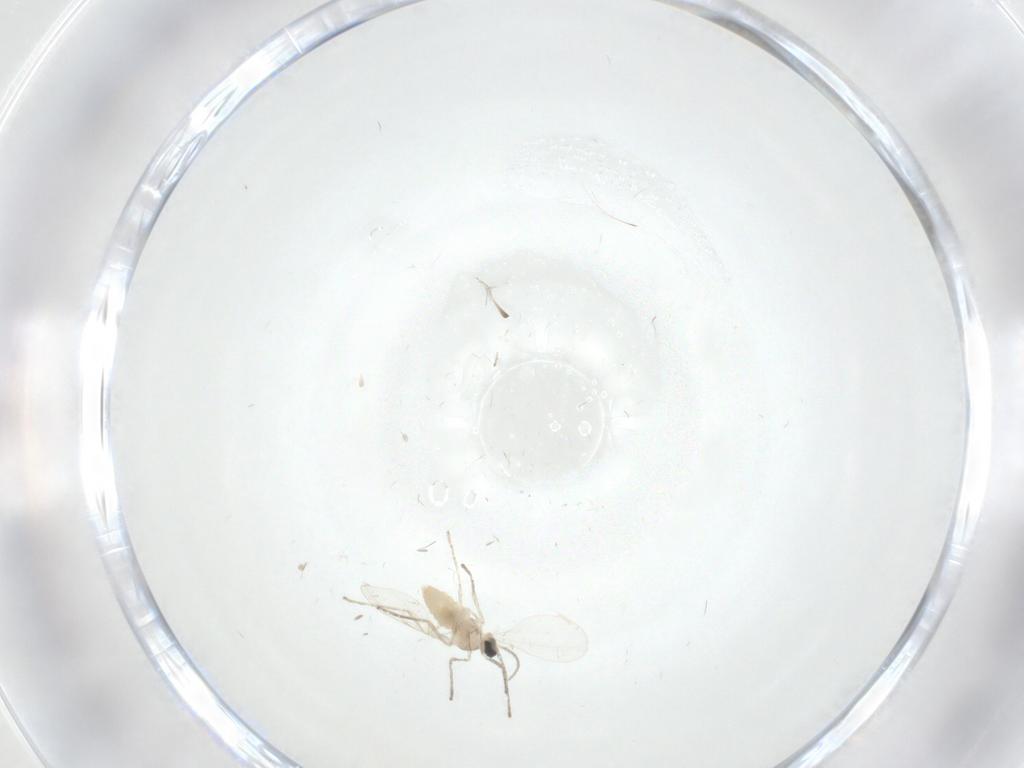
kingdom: Animalia
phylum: Arthropoda
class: Insecta
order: Diptera
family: Cecidomyiidae
